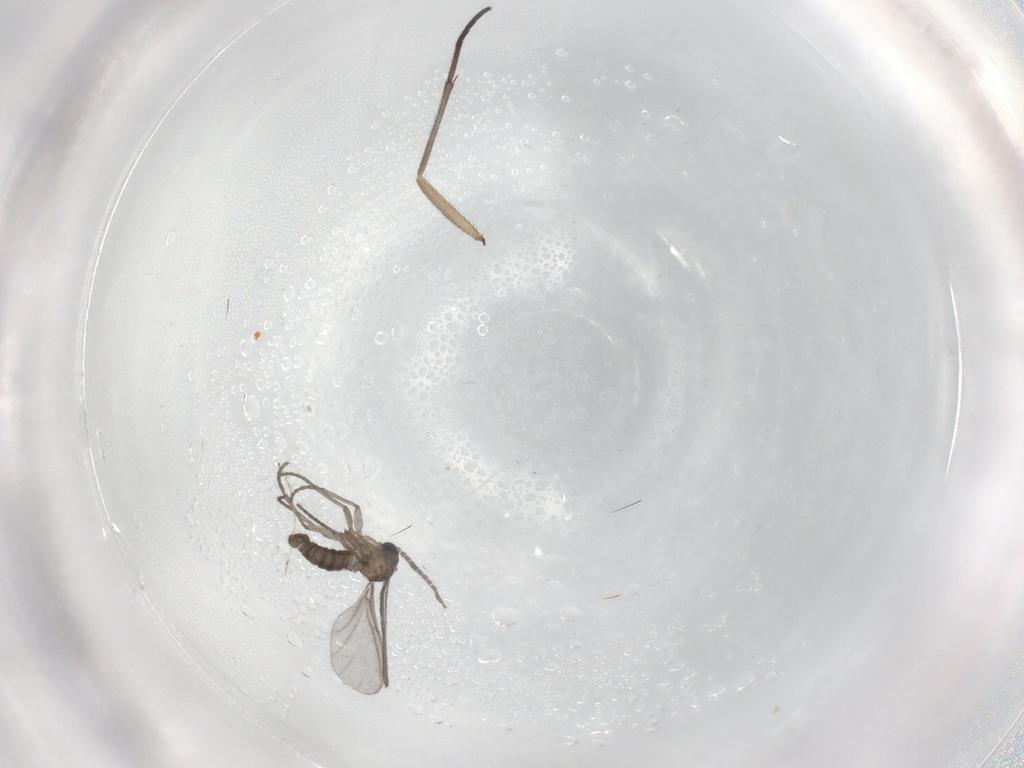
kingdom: Animalia
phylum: Arthropoda
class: Insecta
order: Diptera
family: Sciaridae
